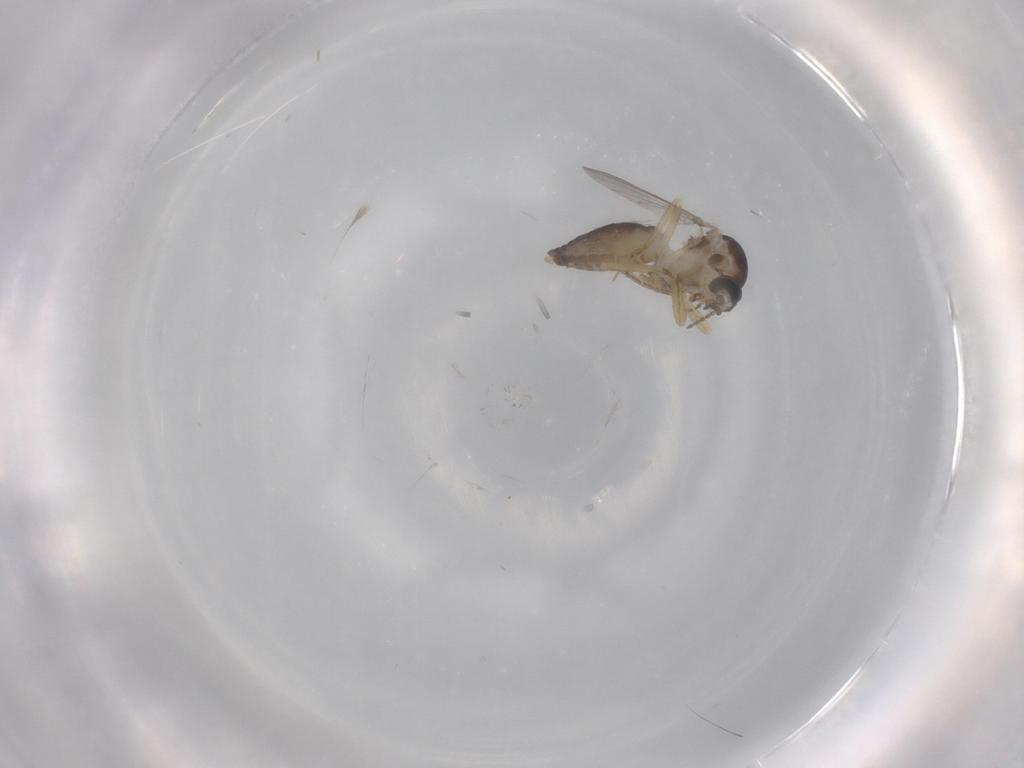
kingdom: Animalia
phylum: Arthropoda
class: Insecta
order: Diptera
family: Ceratopogonidae
